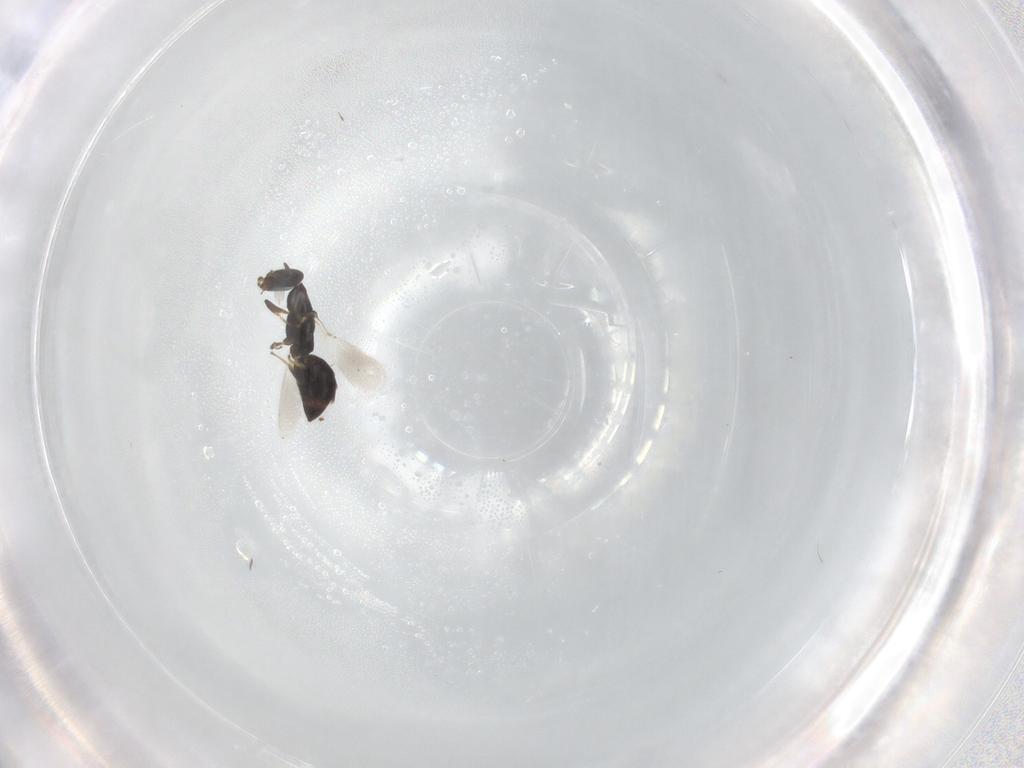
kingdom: Animalia
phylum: Arthropoda
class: Insecta
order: Hymenoptera
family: Bethylidae
